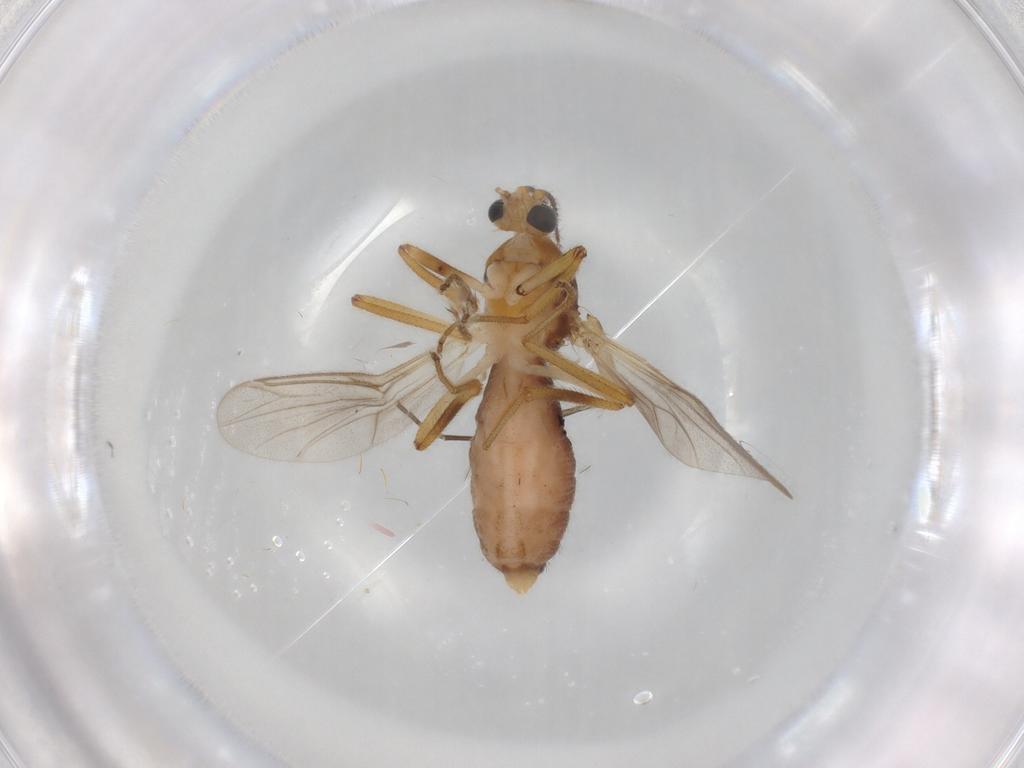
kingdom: Animalia
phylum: Arthropoda
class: Insecta
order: Diptera
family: Ceratopogonidae
